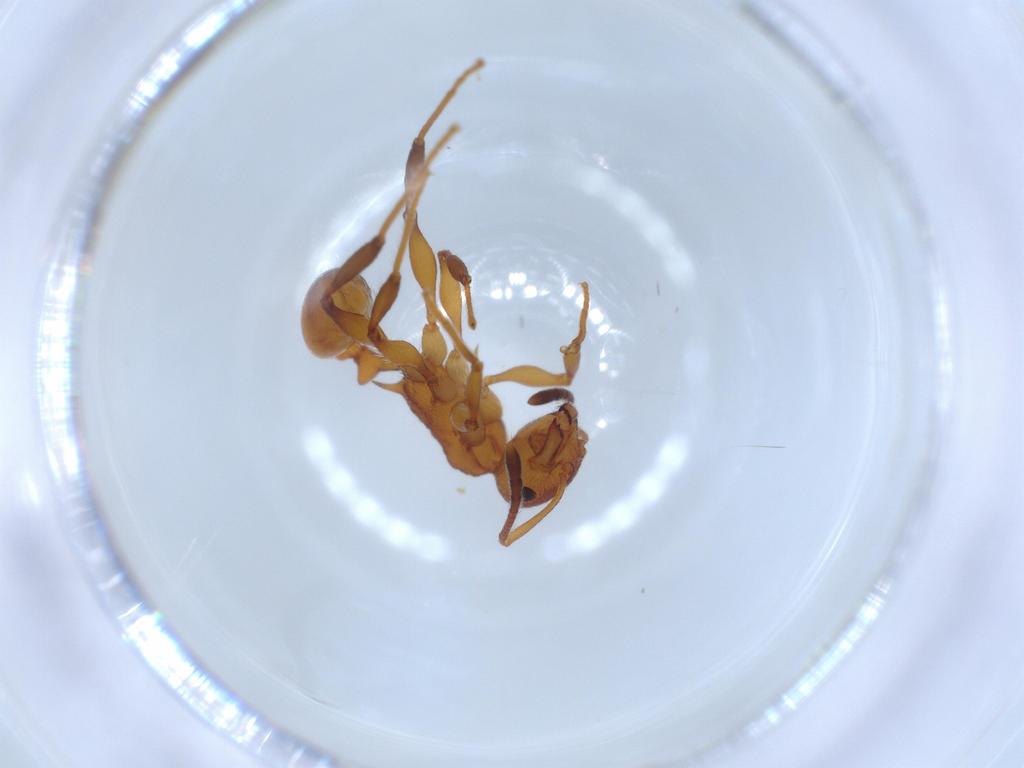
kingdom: Animalia
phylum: Arthropoda
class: Insecta
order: Hymenoptera
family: Formicidae
